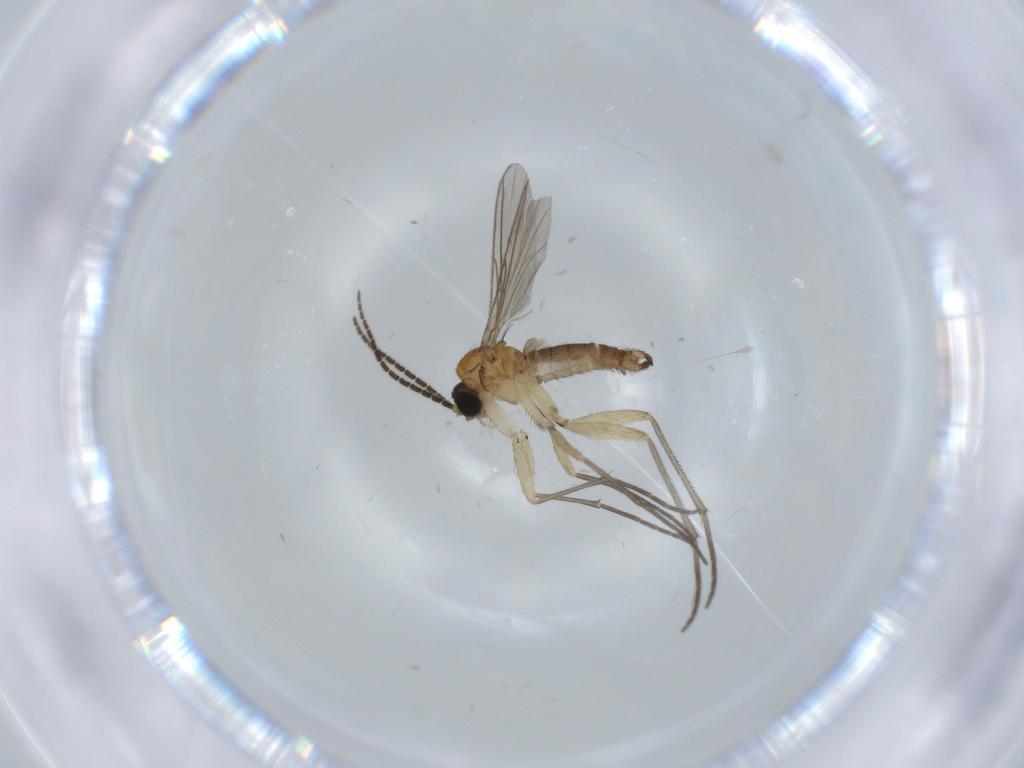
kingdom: Animalia
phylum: Arthropoda
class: Insecta
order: Diptera
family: Sciaridae
